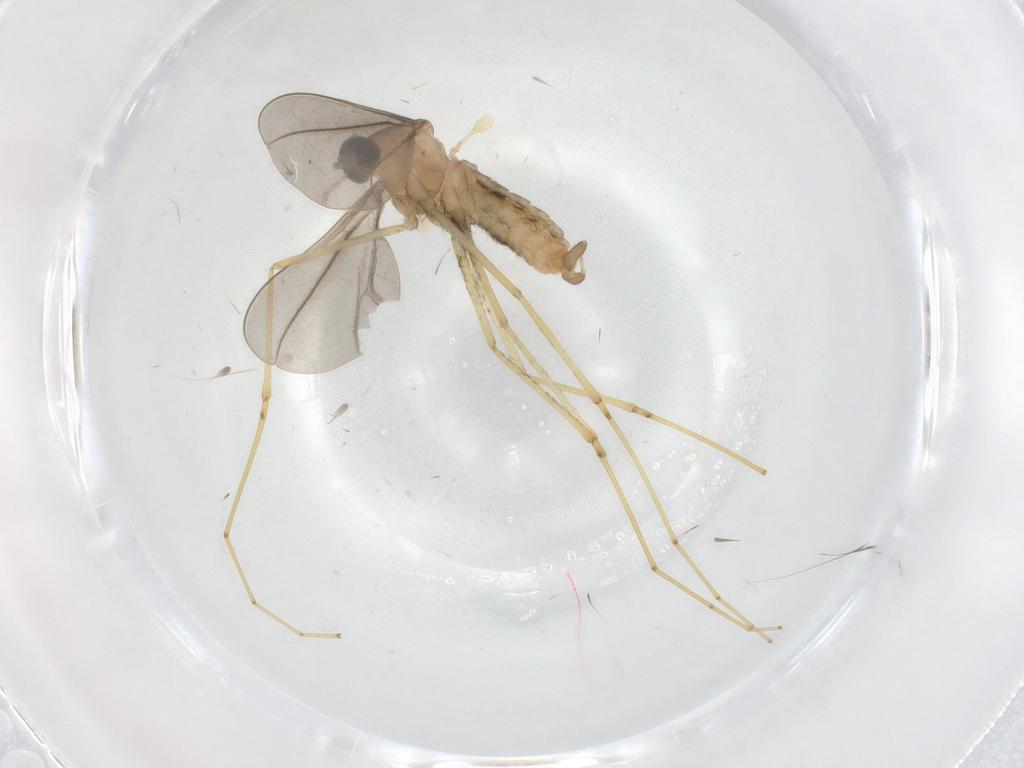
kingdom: Animalia
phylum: Arthropoda
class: Insecta
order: Diptera
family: Cecidomyiidae
